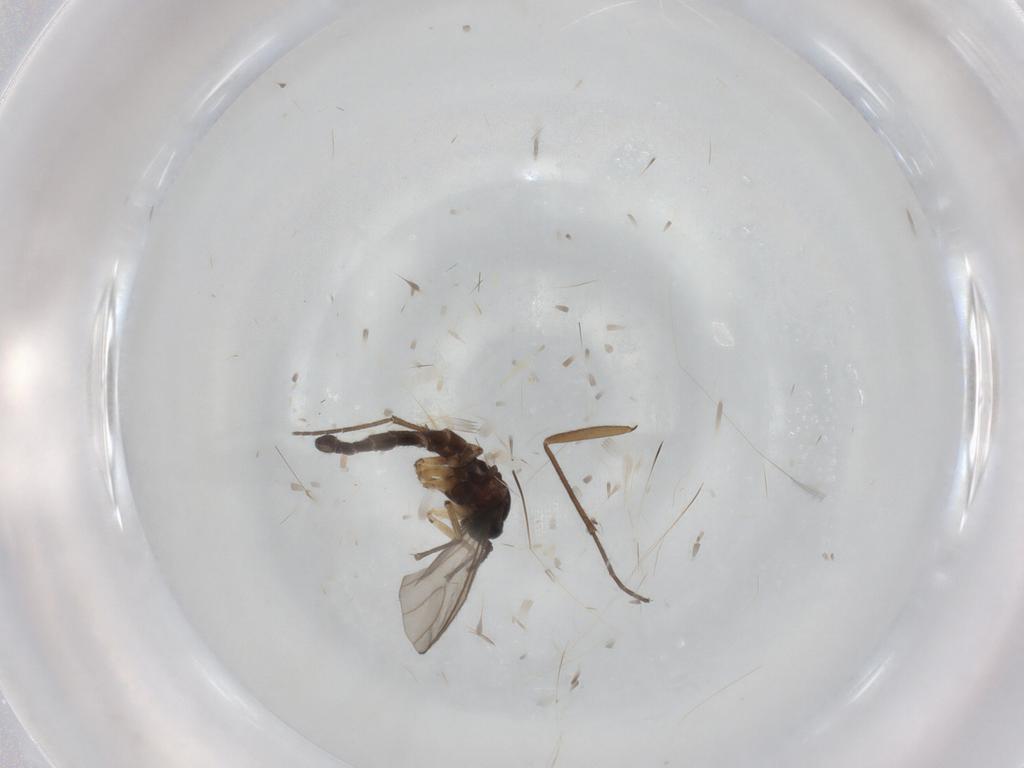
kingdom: Animalia
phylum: Arthropoda
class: Insecta
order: Diptera
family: Sciaridae
